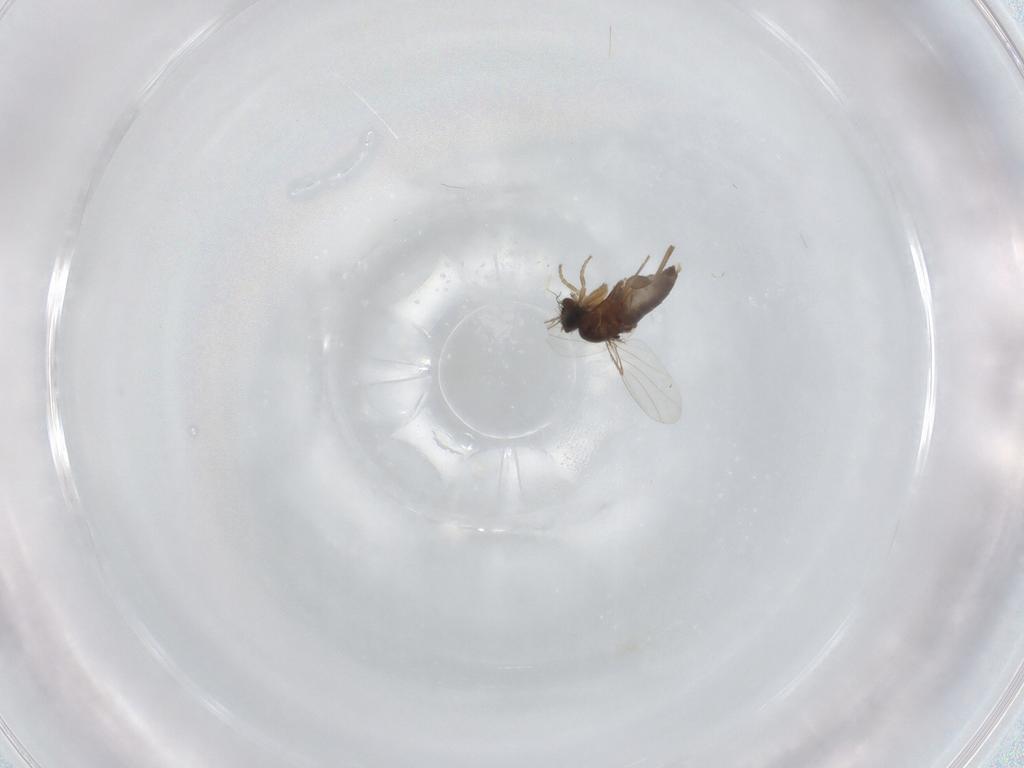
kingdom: Animalia
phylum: Arthropoda
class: Insecta
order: Diptera
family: Phoridae
